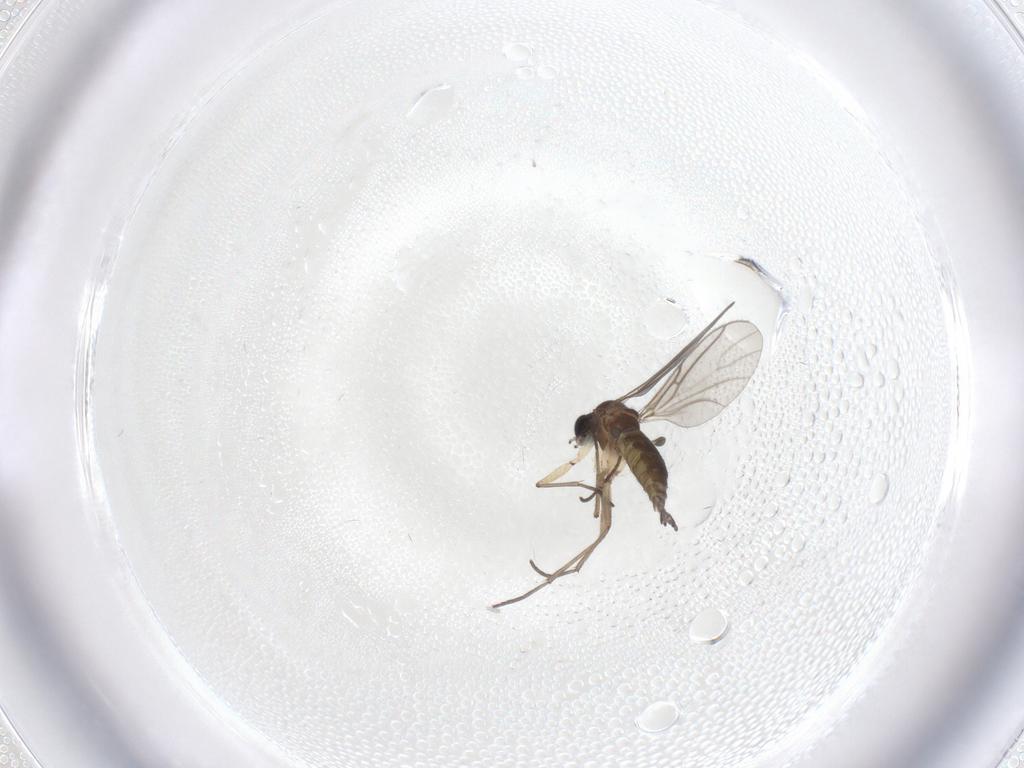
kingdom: Animalia
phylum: Arthropoda
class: Insecta
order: Diptera
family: Sciaridae
